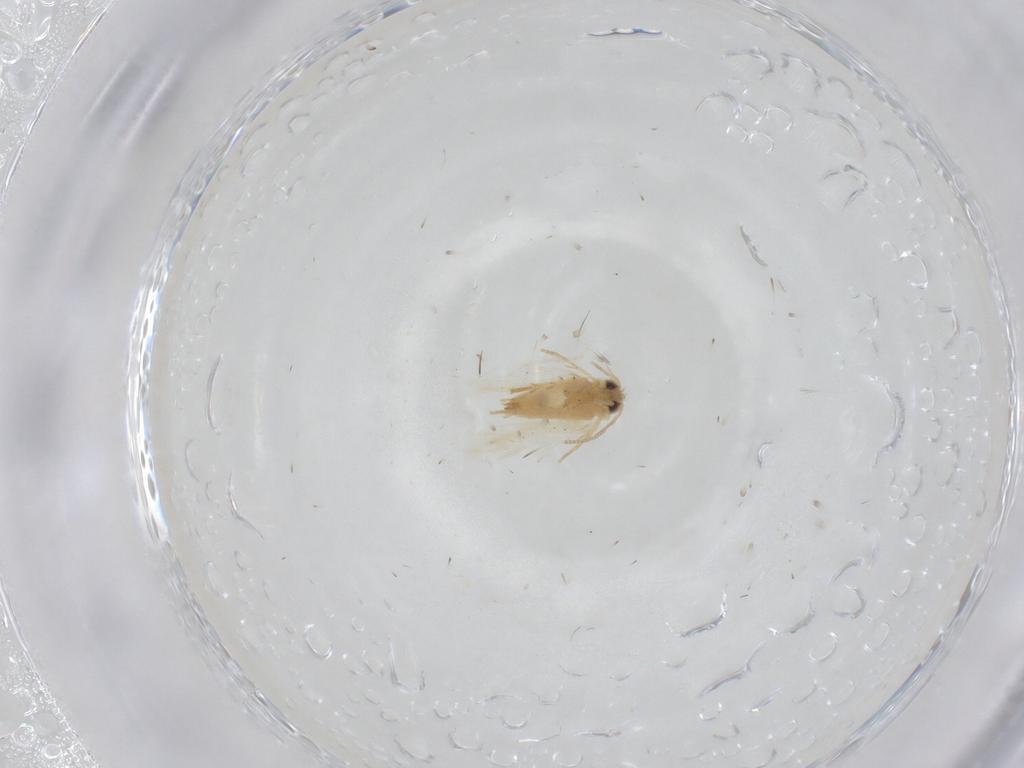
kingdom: Animalia
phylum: Arthropoda
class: Insecta
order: Lepidoptera
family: Crambidae
